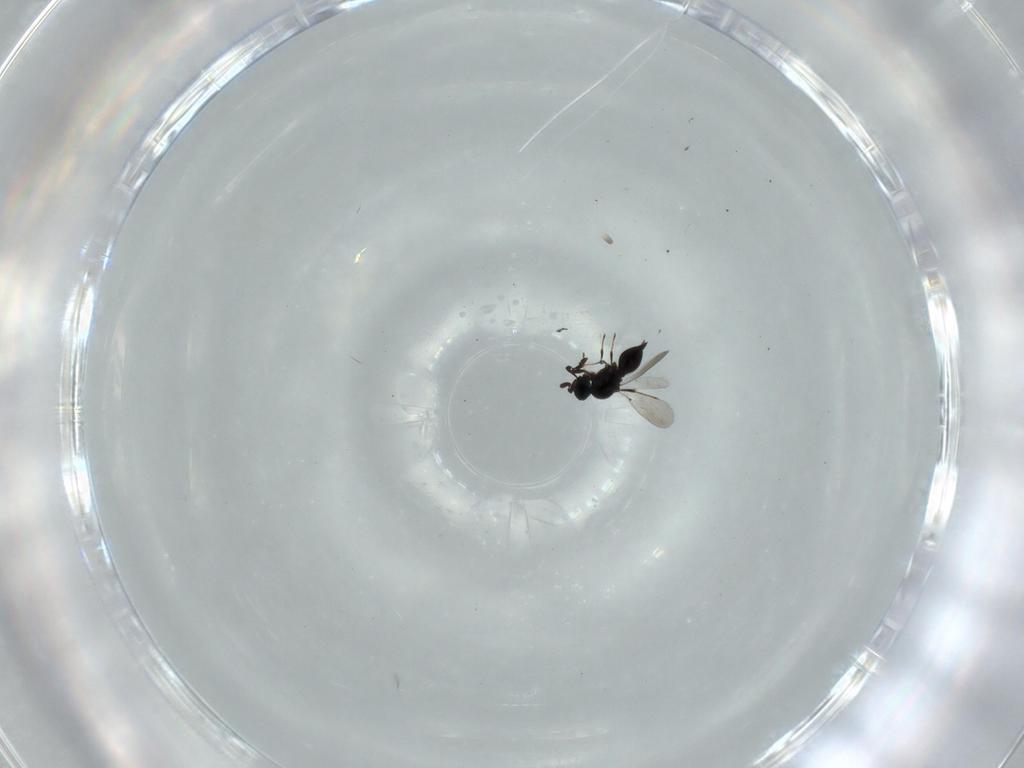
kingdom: Animalia
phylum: Arthropoda
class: Insecta
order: Hymenoptera
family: Platygastridae
